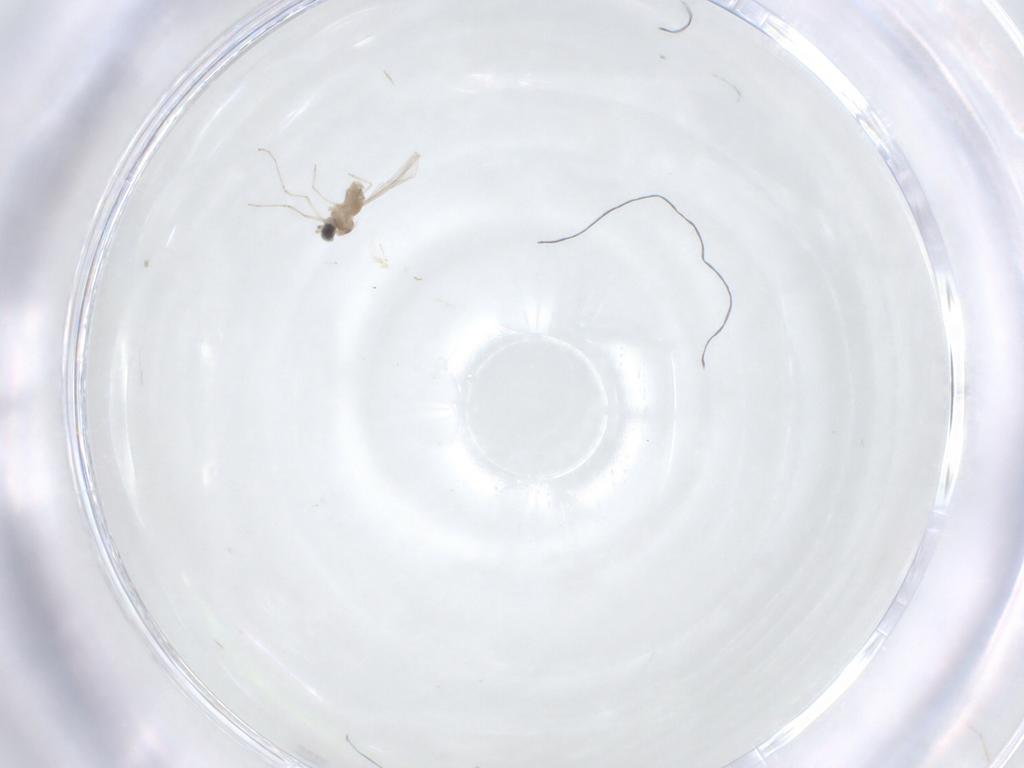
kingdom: Animalia
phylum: Arthropoda
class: Insecta
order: Diptera
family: Cecidomyiidae
